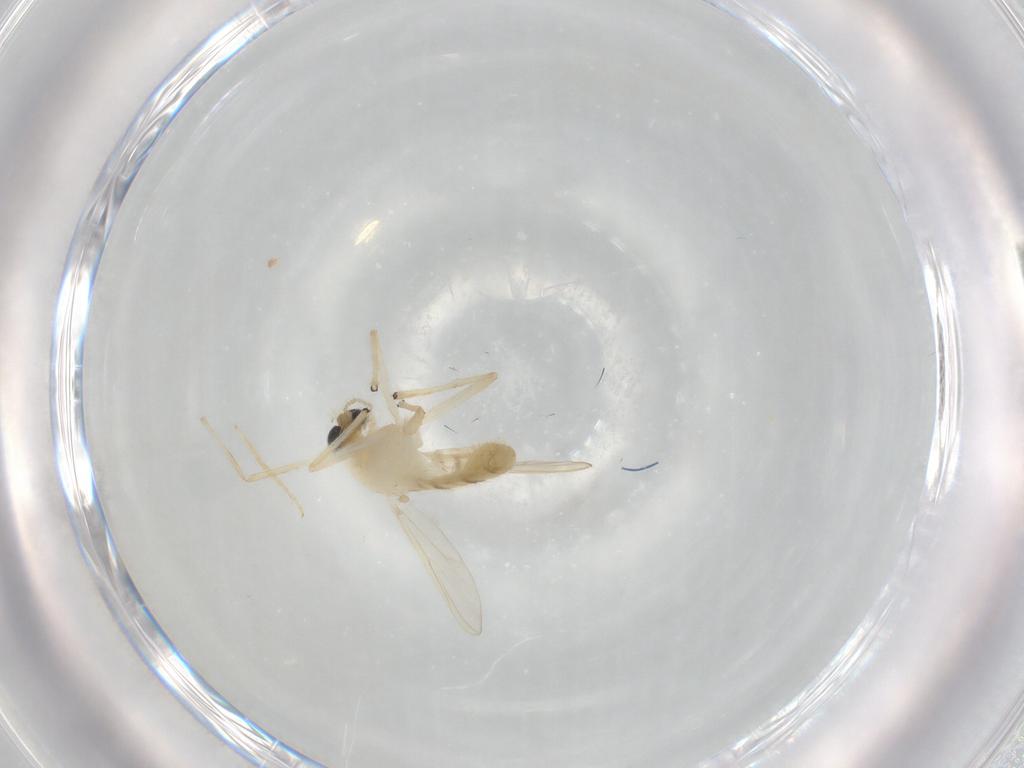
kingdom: Animalia
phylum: Arthropoda
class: Insecta
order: Diptera
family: Chironomidae
